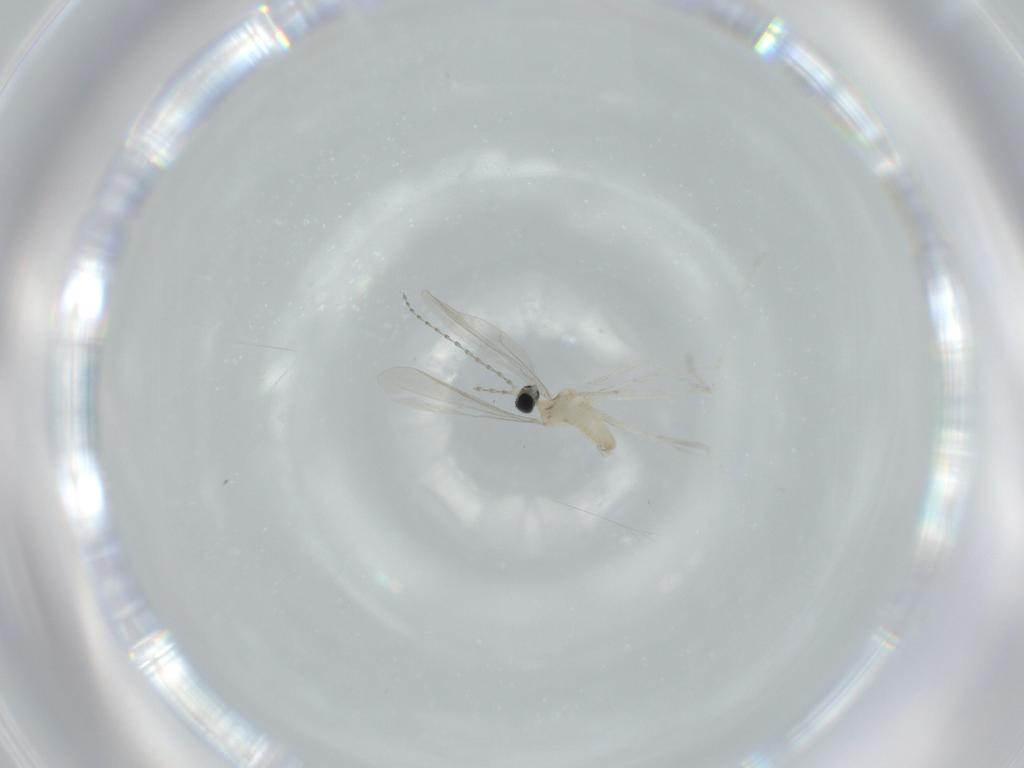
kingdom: Animalia
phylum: Arthropoda
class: Insecta
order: Diptera
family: Cecidomyiidae
